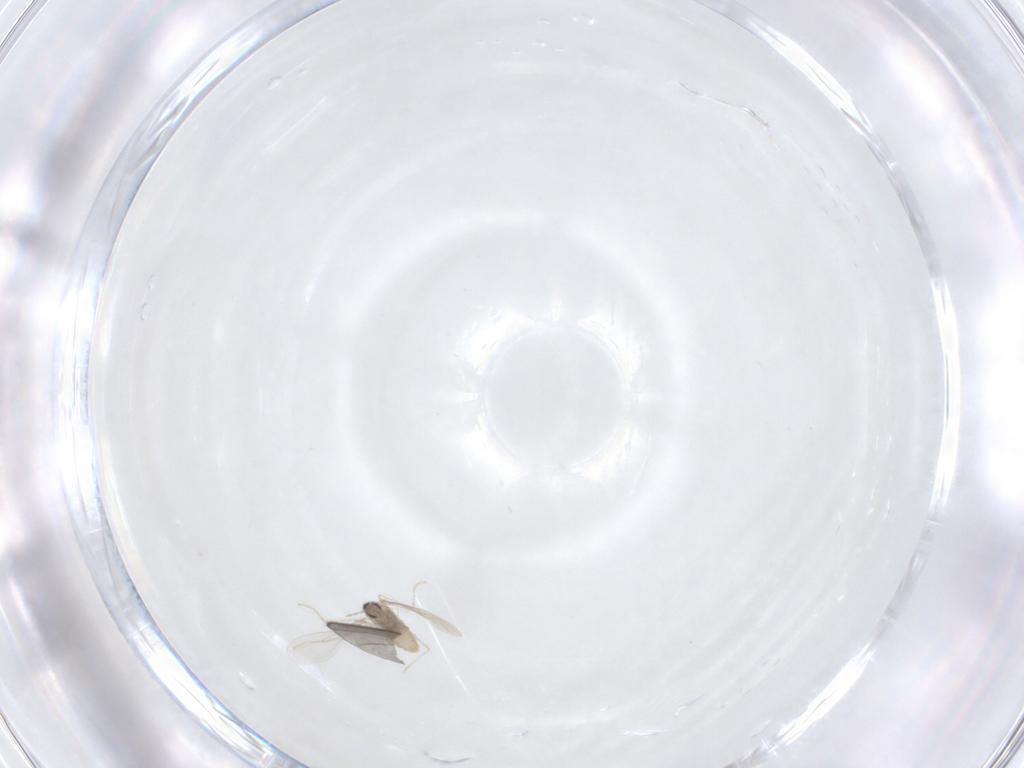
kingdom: Animalia
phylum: Arthropoda
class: Insecta
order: Diptera
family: Cecidomyiidae
